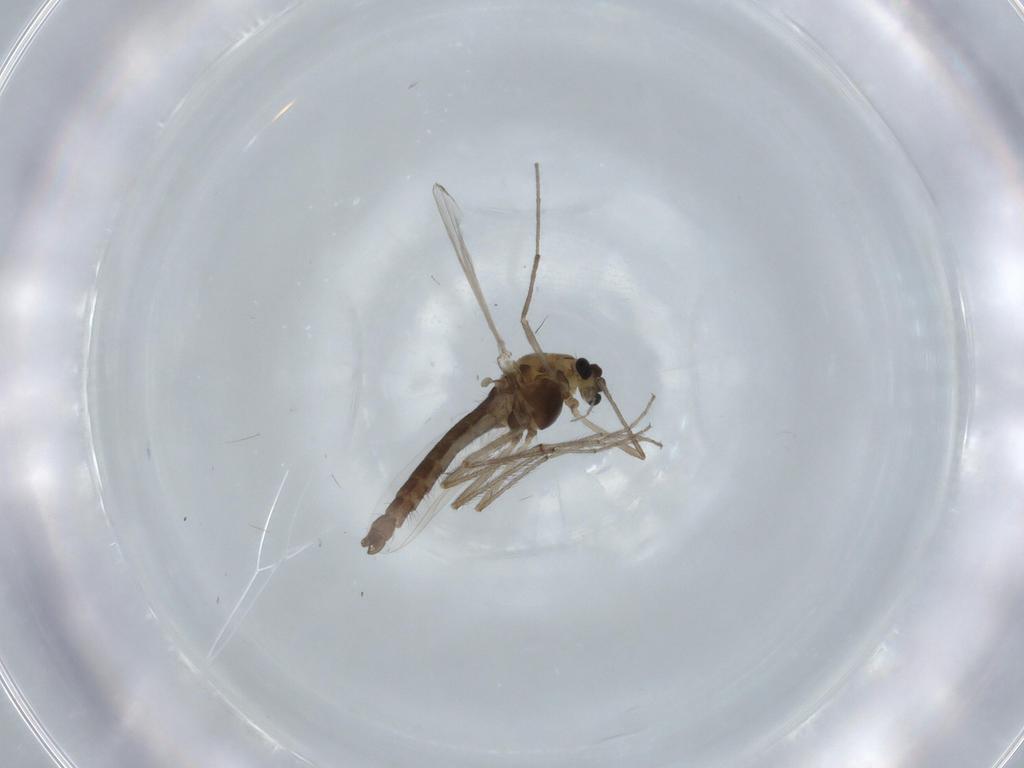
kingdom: Animalia
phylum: Arthropoda
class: Insecta
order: Diptera
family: Chironomidae
